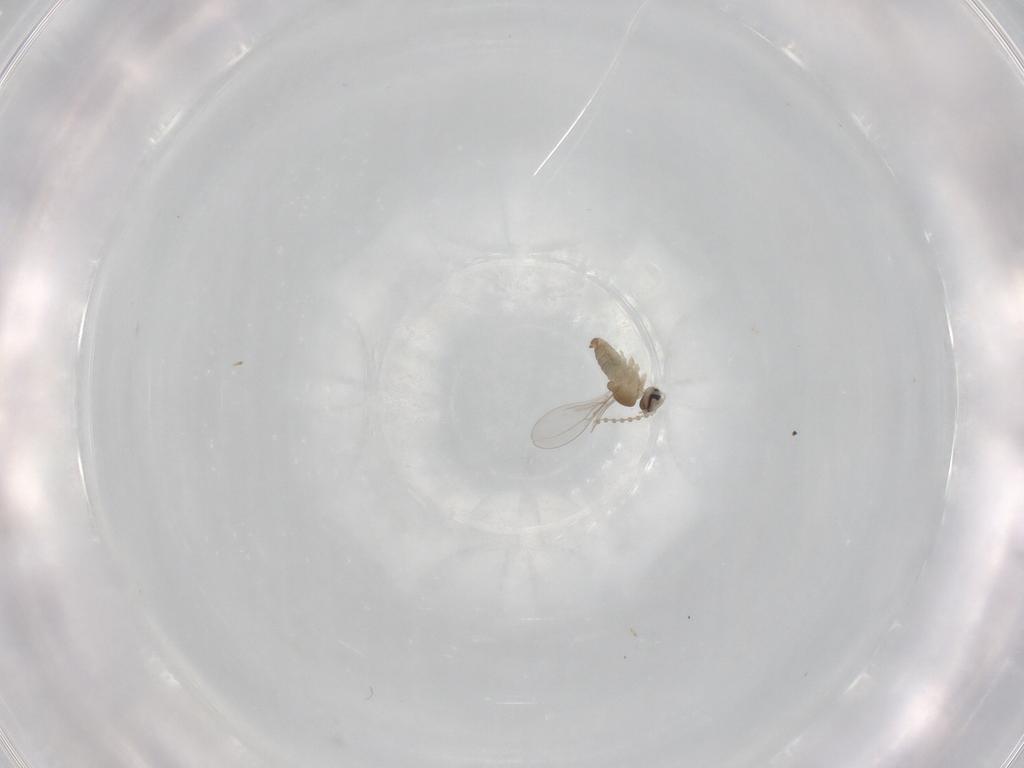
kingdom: Animalia
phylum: Arthropoda
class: Insecta
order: Diptera
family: Cecidomyiidae
